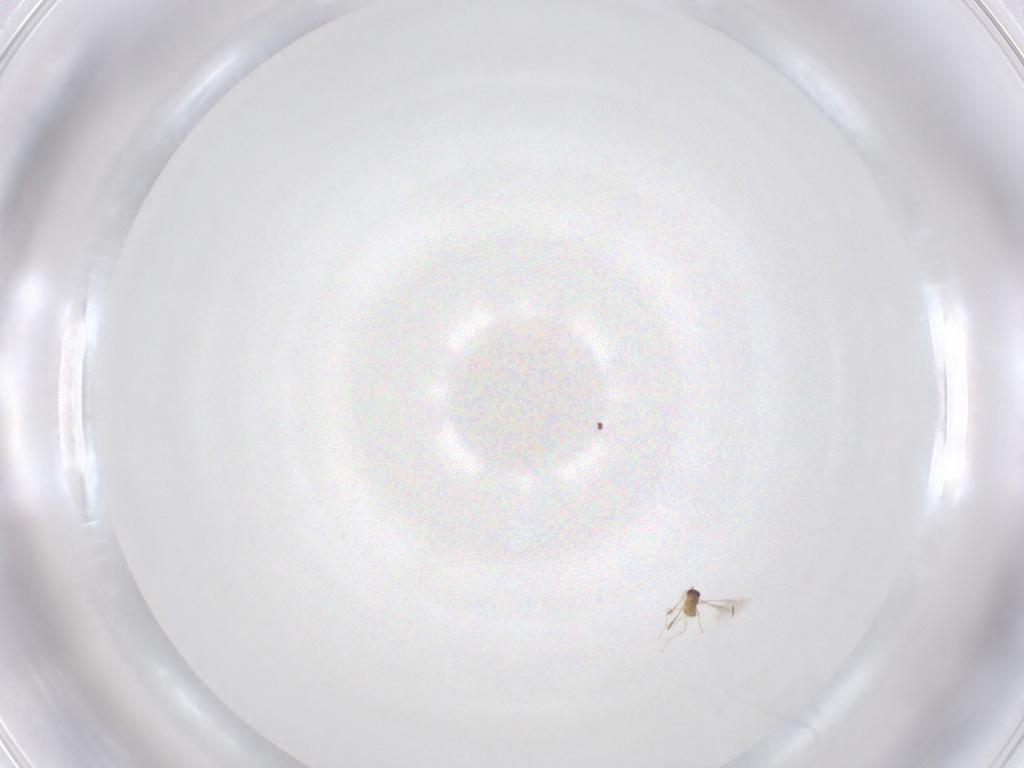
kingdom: Animalia
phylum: Arthropoda
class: Insecta
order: Hymenoptera
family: Mymaridae
